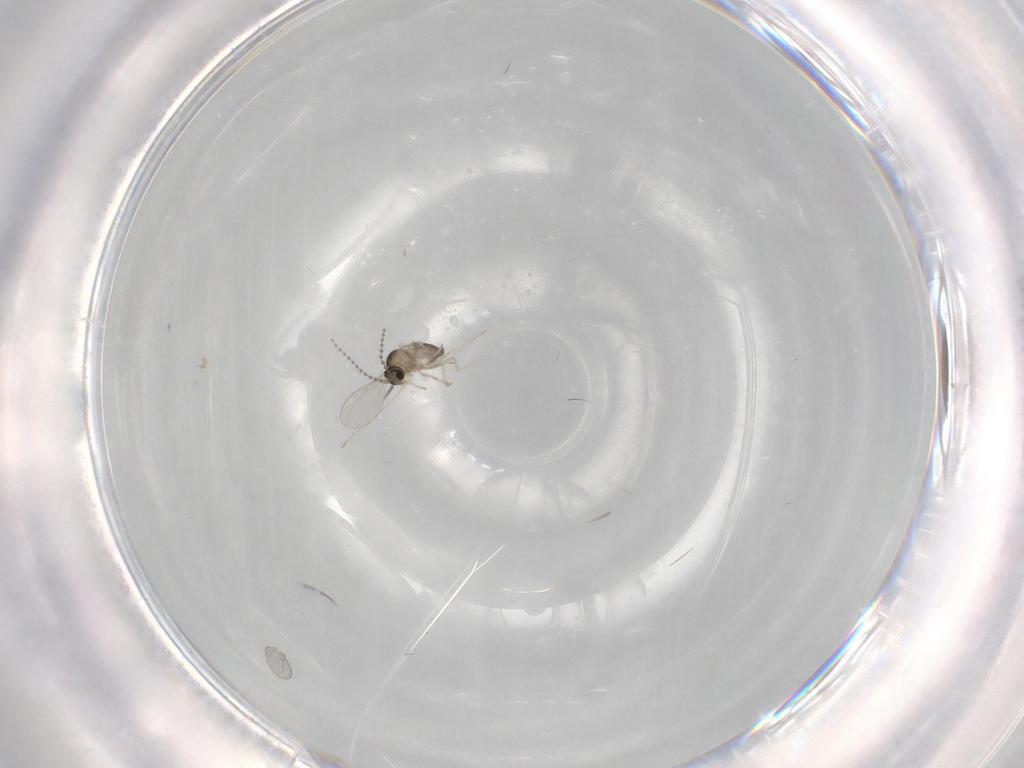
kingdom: Animalia
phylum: Arthropoda
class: Insecta
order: Diptera
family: Cecidomyiidae
